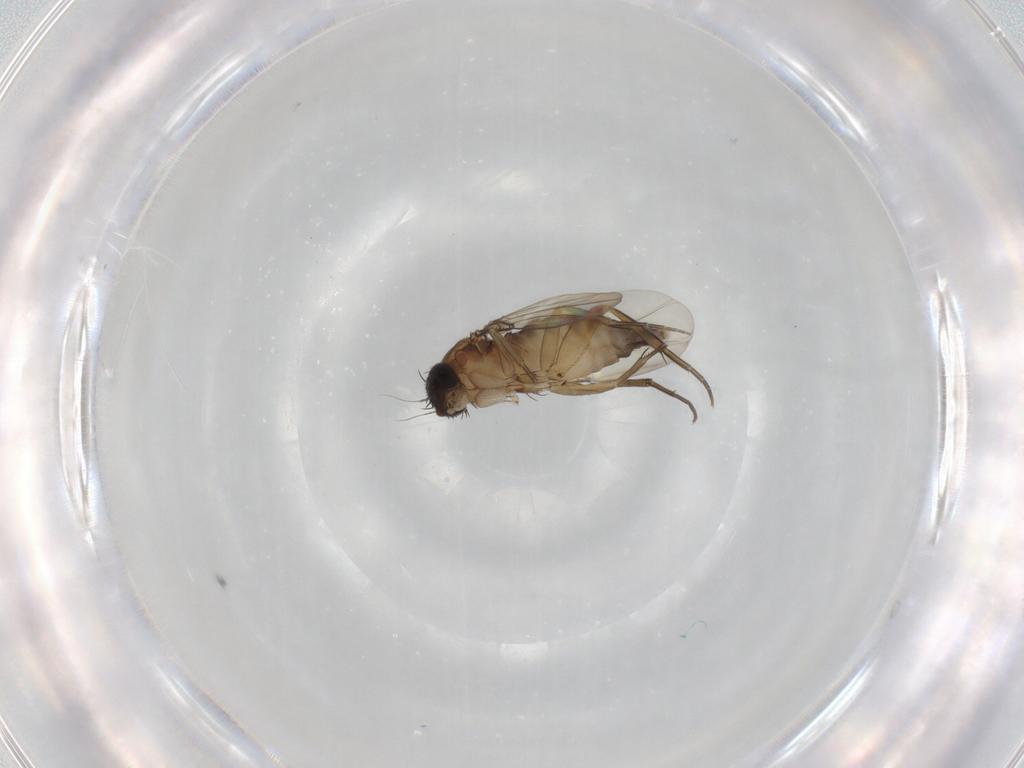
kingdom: Animalia
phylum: Arthropoda
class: Insecta
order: Diptera
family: Phoridae
